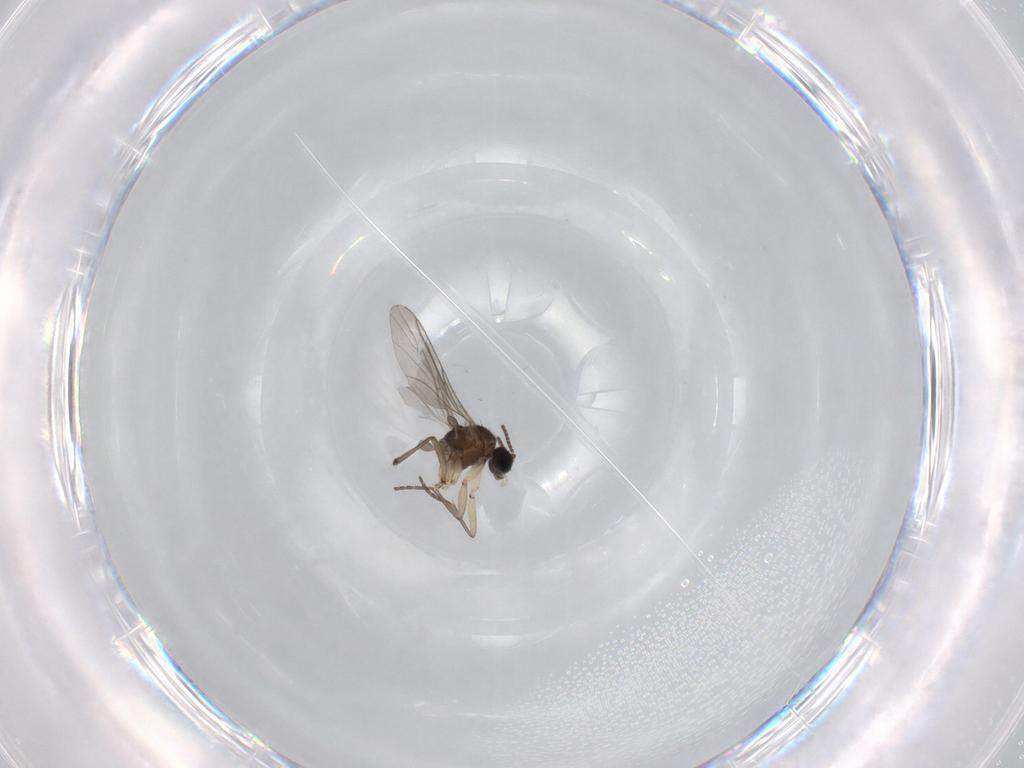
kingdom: Animalia
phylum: Arthropoda
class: Insecta
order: Diptera
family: Sciaridae
